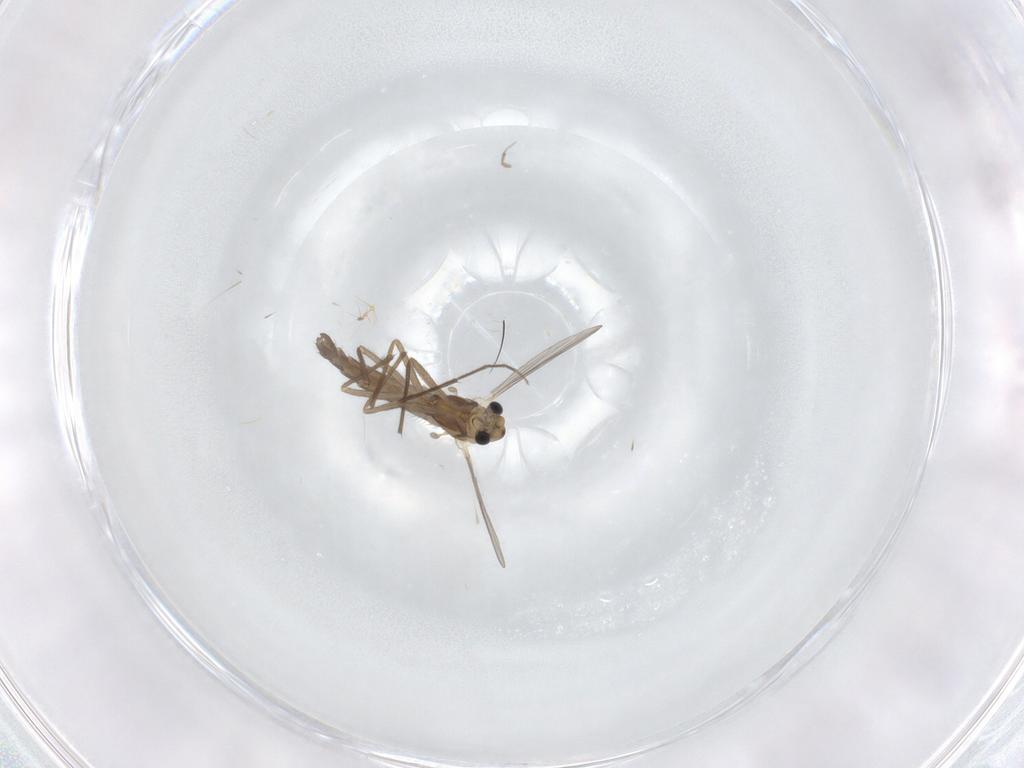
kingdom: Animalia
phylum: Arthropoda
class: Insecta
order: Diptera
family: Chironomidae
